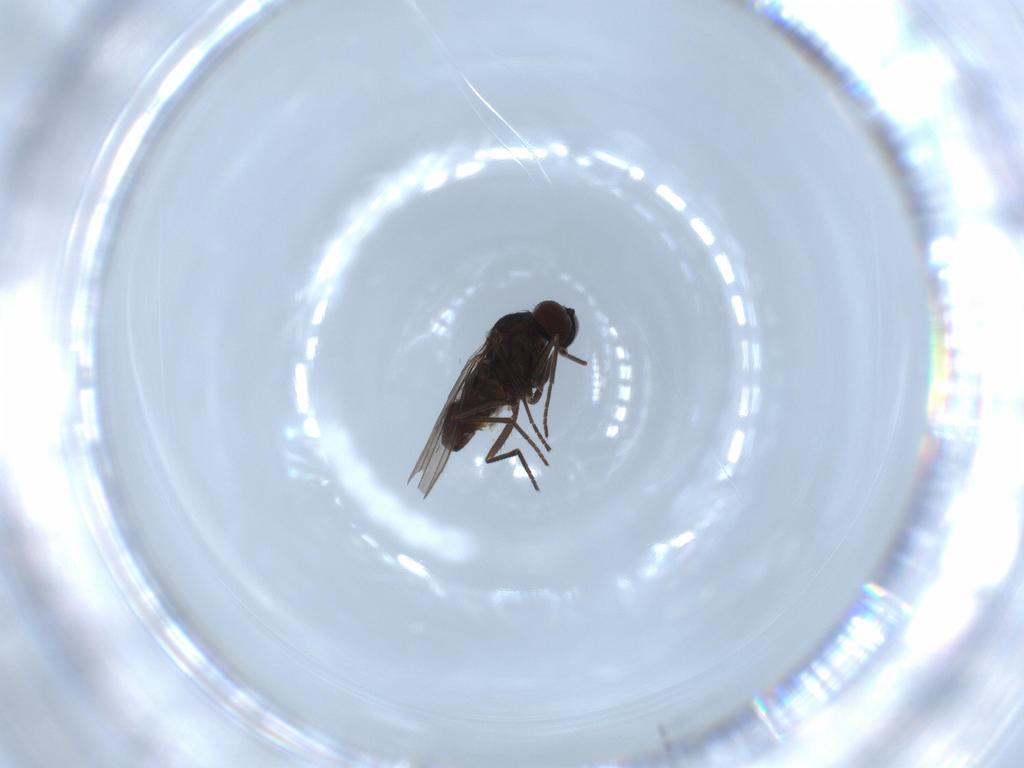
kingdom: Animalia
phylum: Arthropoda
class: Insecta
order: Diptera
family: Dolichopodidae
